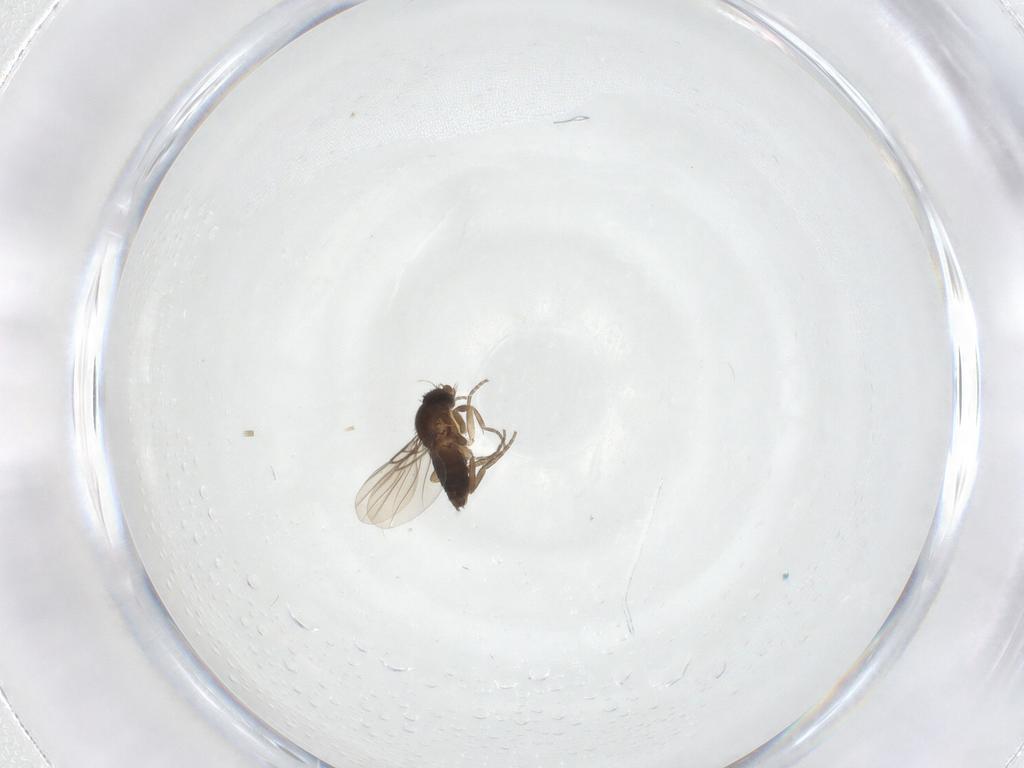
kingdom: Animalia
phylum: Arthropoda
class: Insecta
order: Diptera
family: Phoridae
